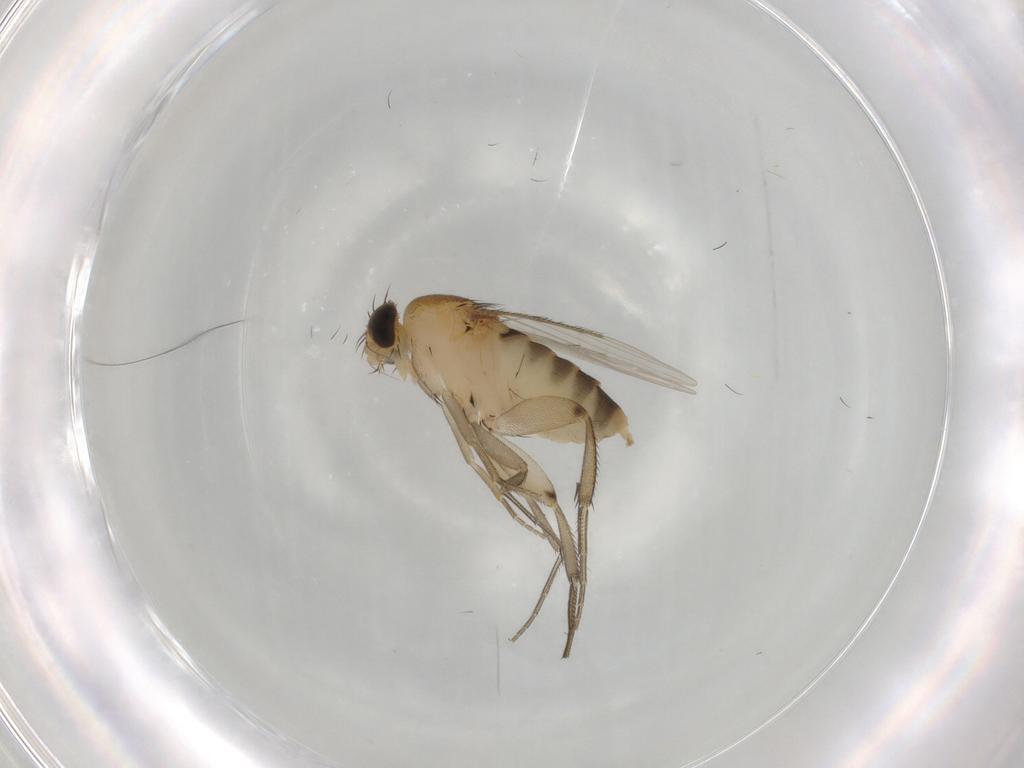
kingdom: Animalia
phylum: Arthropoda
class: Insecta
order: Diptera
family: Phoridae
